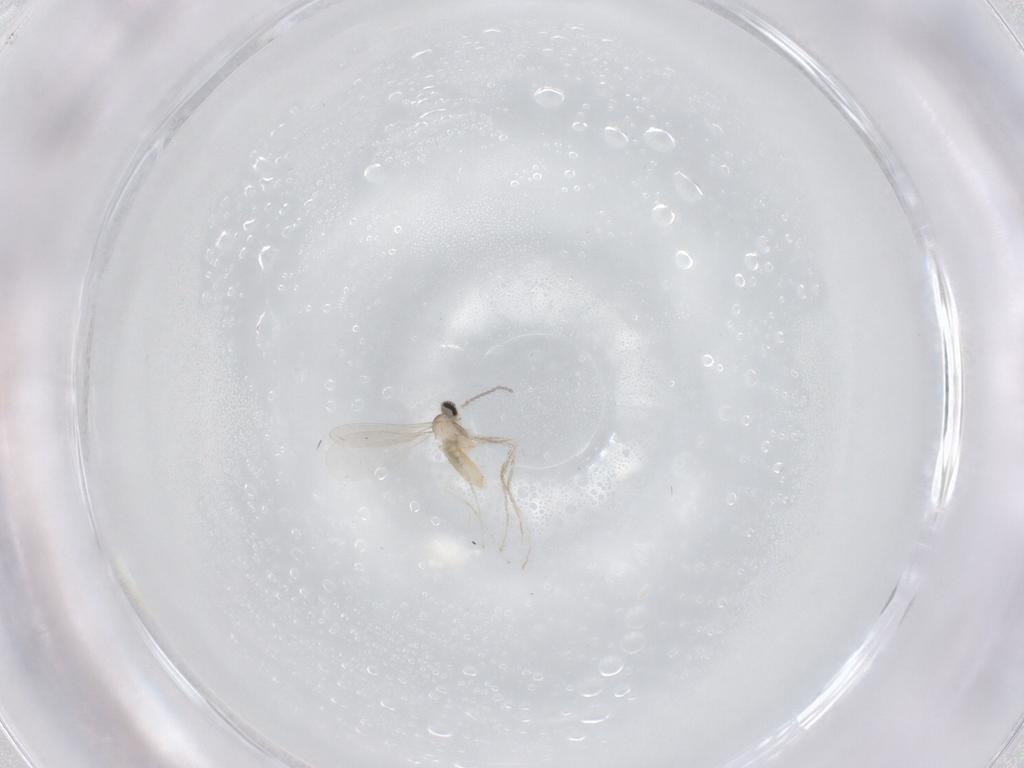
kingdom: Animalia
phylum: Arthropoda
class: Insecta
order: Diptera
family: Cecidomyiidae
